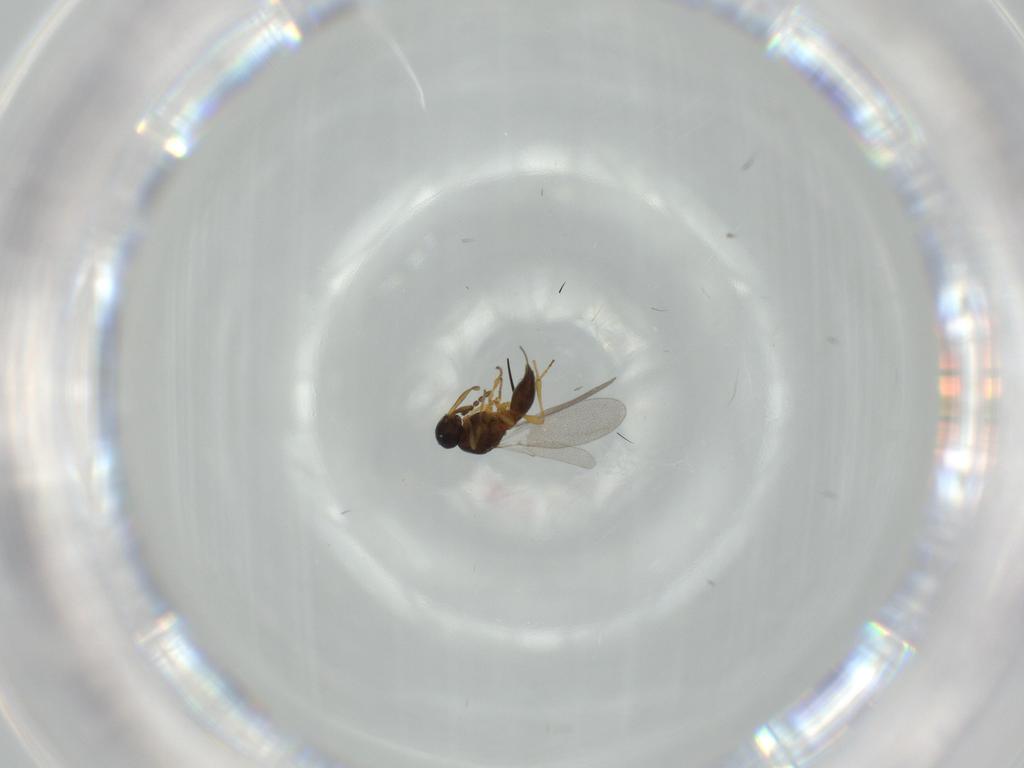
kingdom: Animalia
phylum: Arthropoda
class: Insecta
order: Diptera
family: Mythicomyiidae
